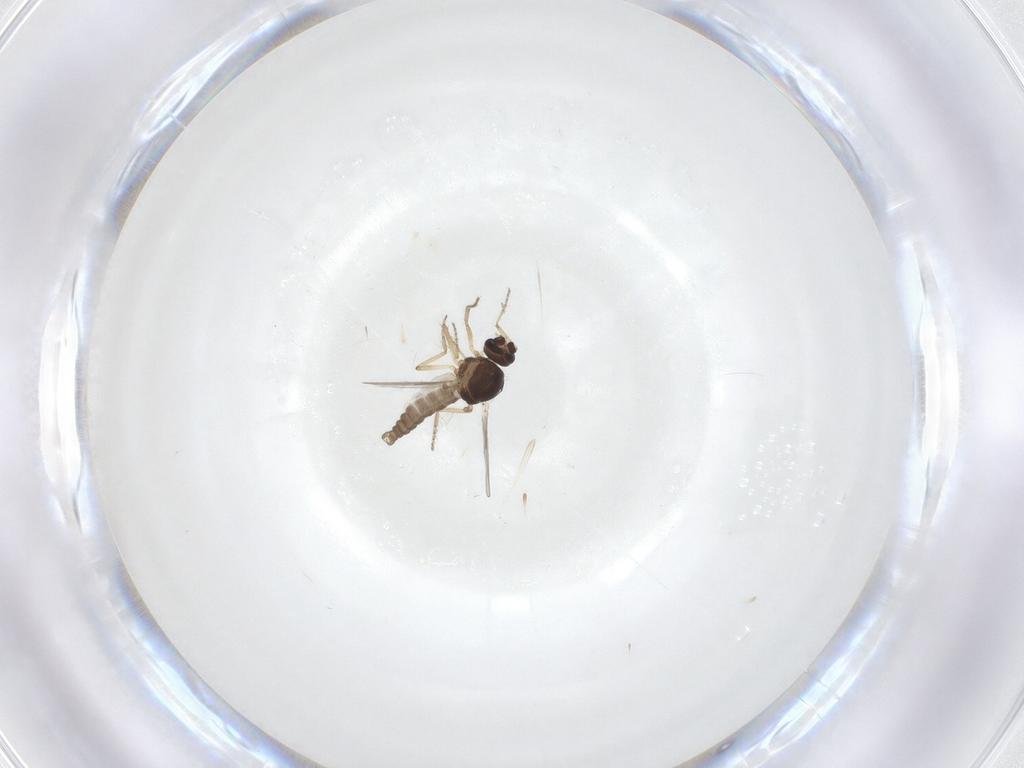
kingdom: Animalia
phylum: Arthropoda
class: Insecta
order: Diptera
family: Ceratopogonidae
